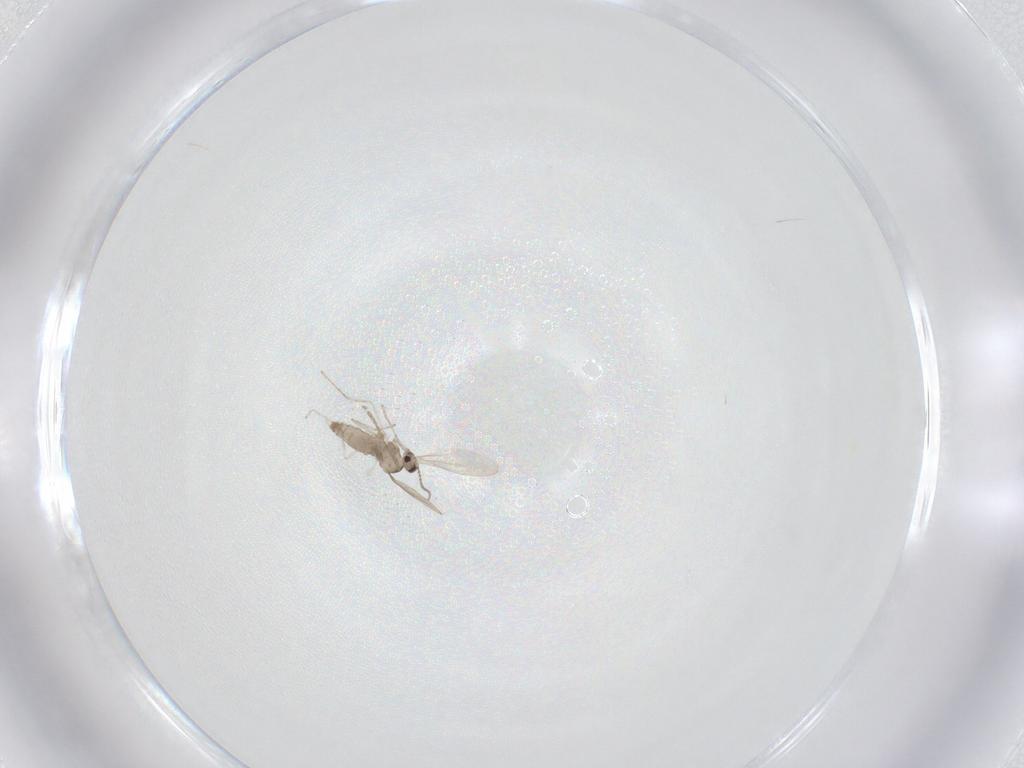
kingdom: Animalia
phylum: Arthropoda
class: Insecta
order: Diptera
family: Cecidomyiidae
